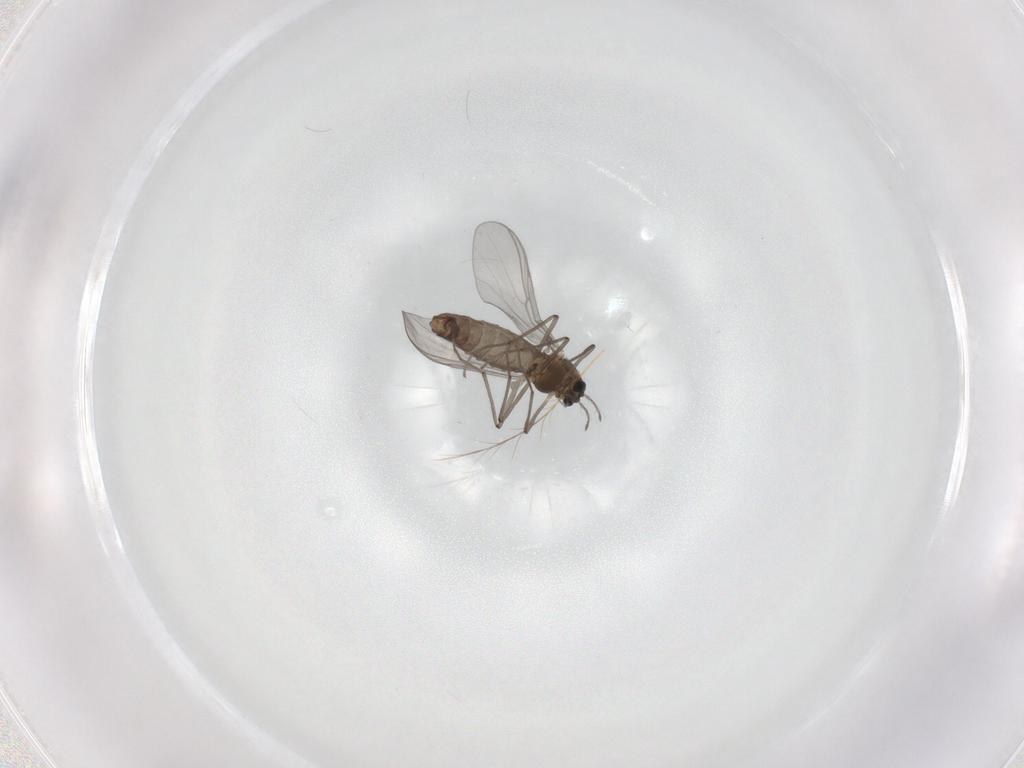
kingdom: Animalia
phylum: Arthropoda
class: Insecta
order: Diptera
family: Chironomidae
